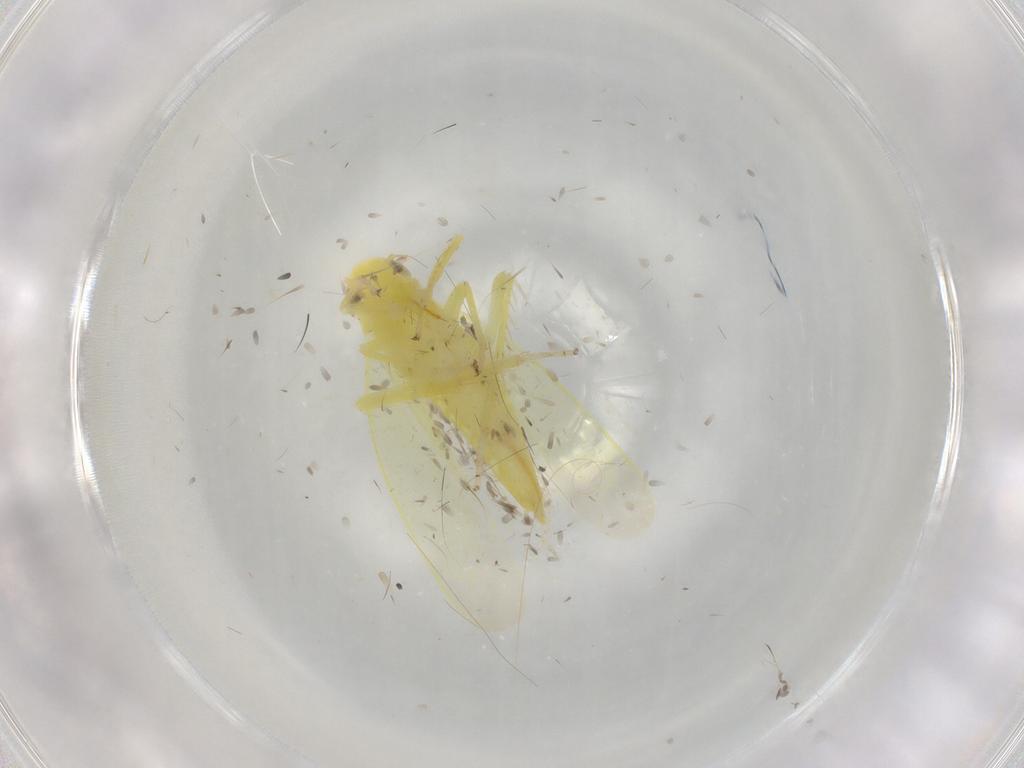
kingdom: Animalia
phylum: Arthropoda
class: Insecta
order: Hemiptera
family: Cicadellidae
